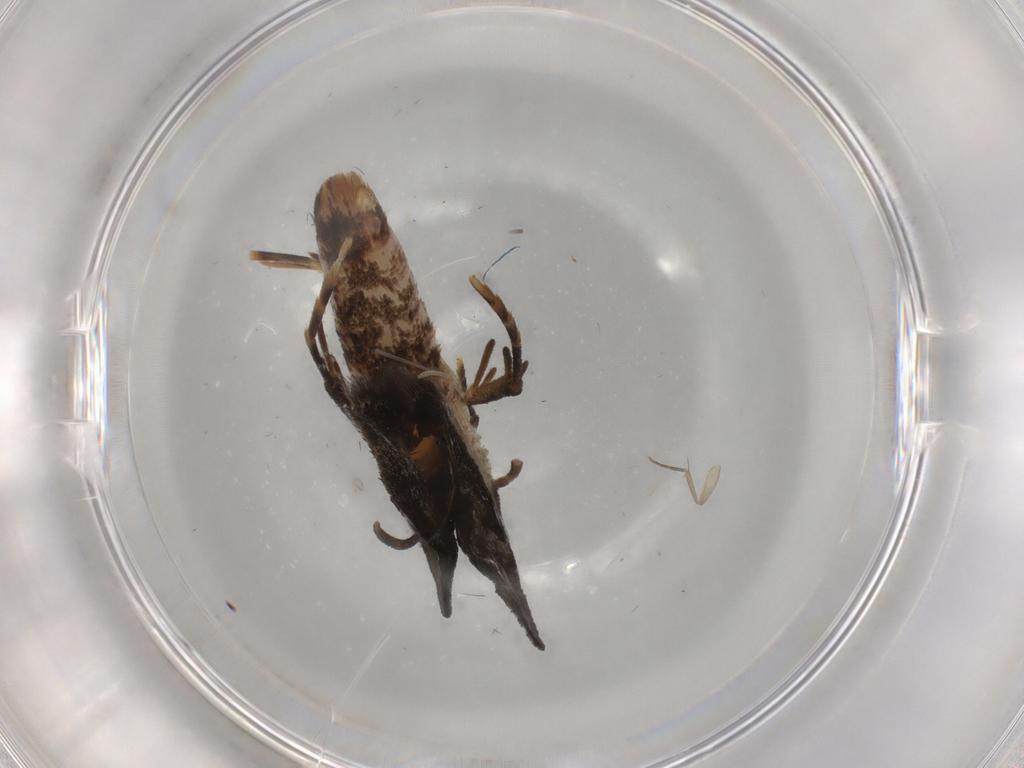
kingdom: Animalia
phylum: Arthropoda
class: Insecta
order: Lepidoptera
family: Dryadaulidae
